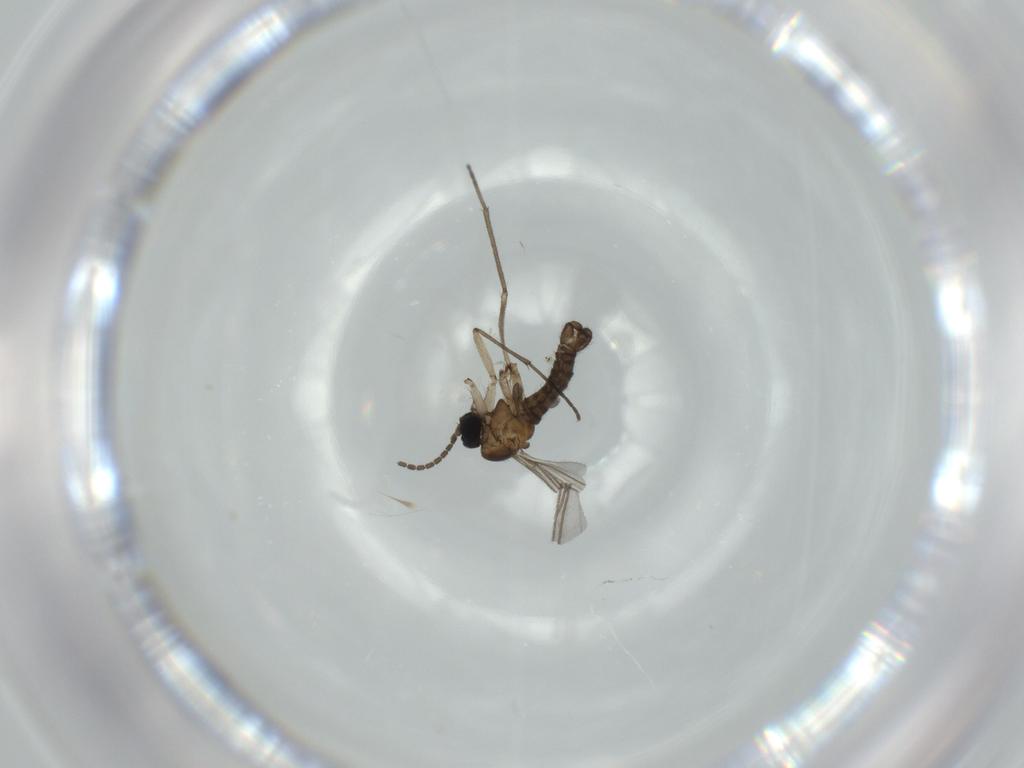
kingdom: Animalia
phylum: Arthropoda
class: Insecta
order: Diptera
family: Sciaridae
